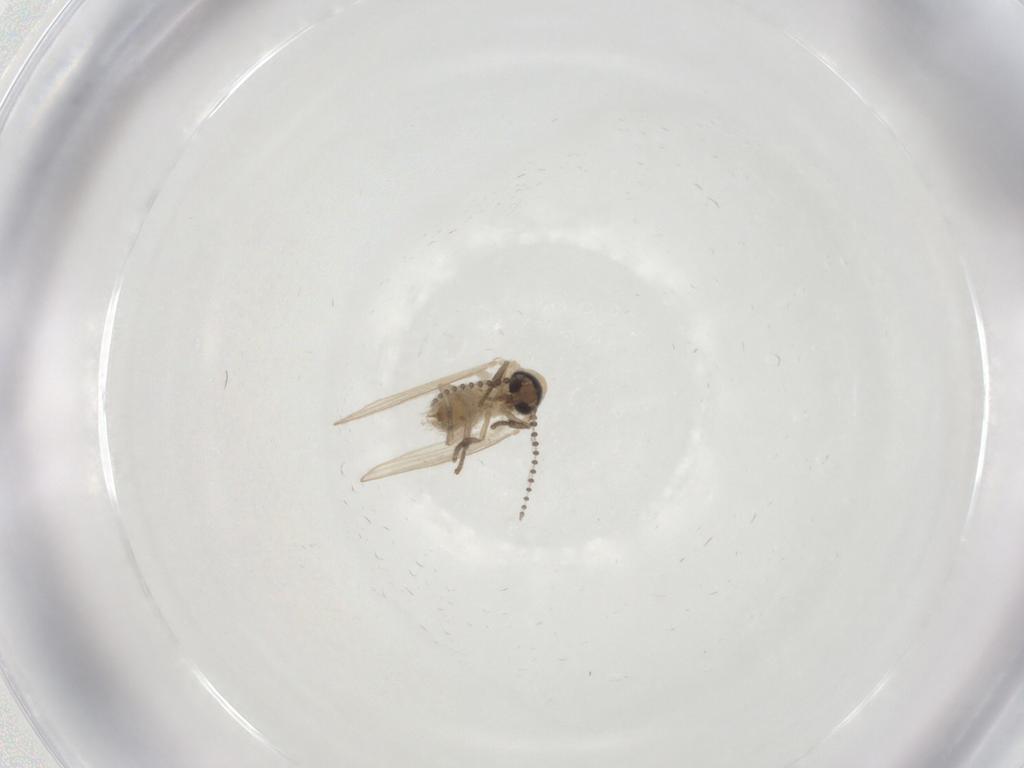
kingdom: Animalia
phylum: Arthropoda
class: Insecta
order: Diptera
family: Psychodidae
